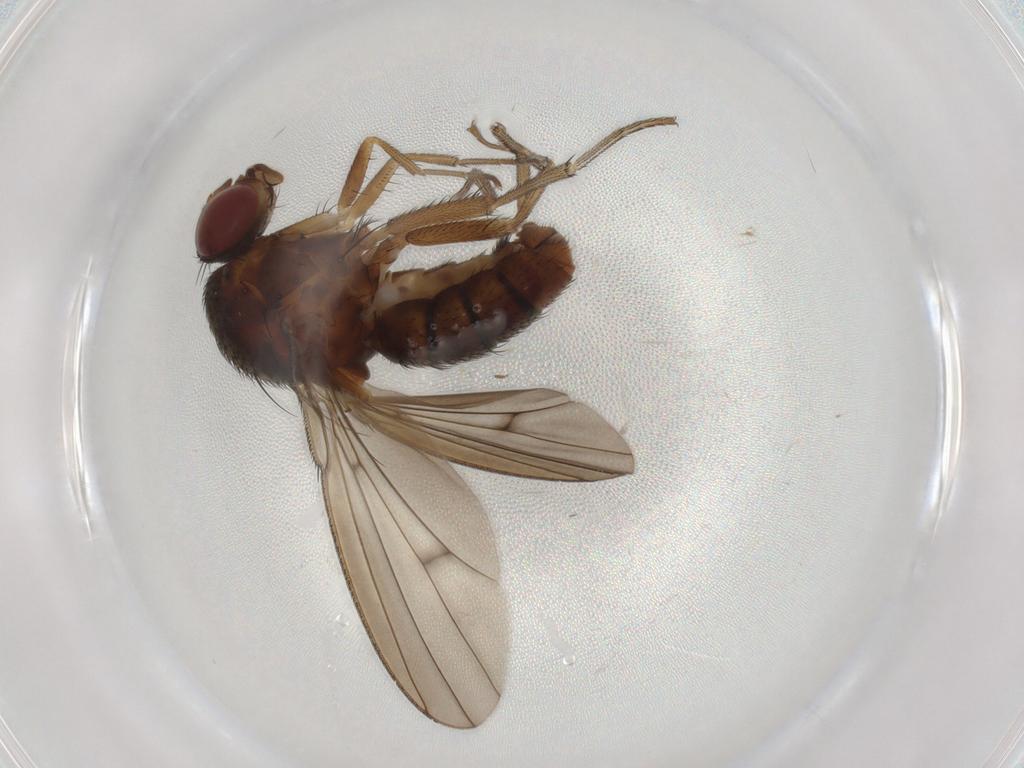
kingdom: Animalia
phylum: Arthropoda
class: Insecta
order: Diptera
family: Curtonotidae
